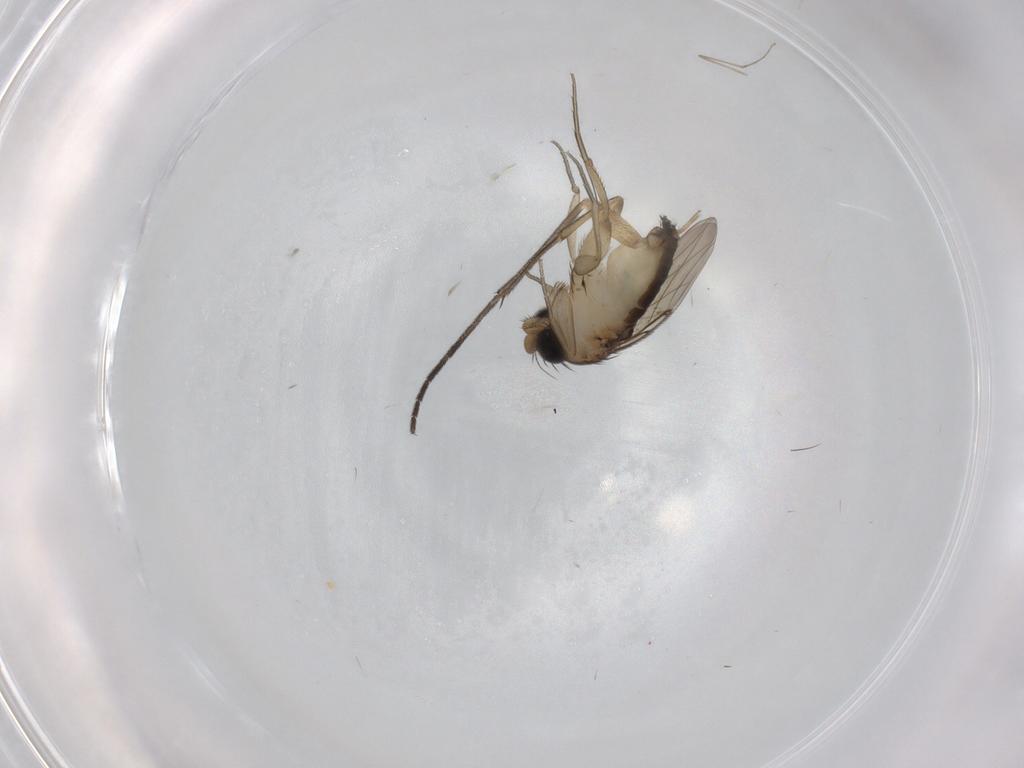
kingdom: Animalia
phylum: Arthropoda
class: Insecta
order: Diptera
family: Phoridae
